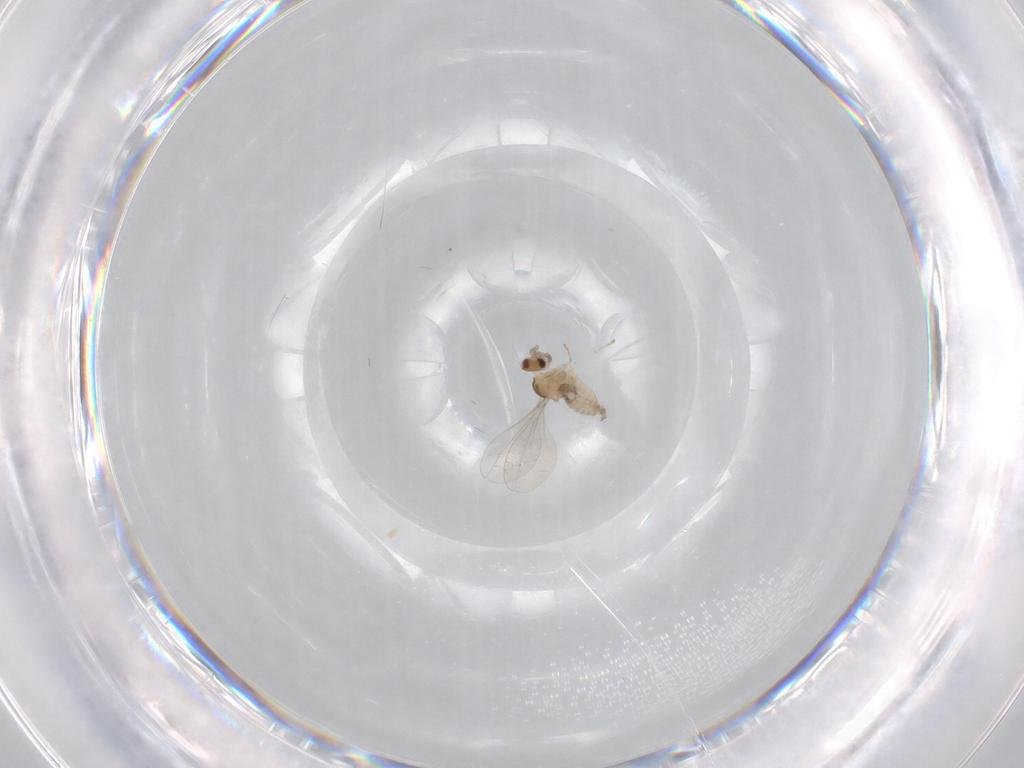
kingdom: Animalia
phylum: Arthropoda
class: Insecta
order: Diptera
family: Cecidomyiidae
